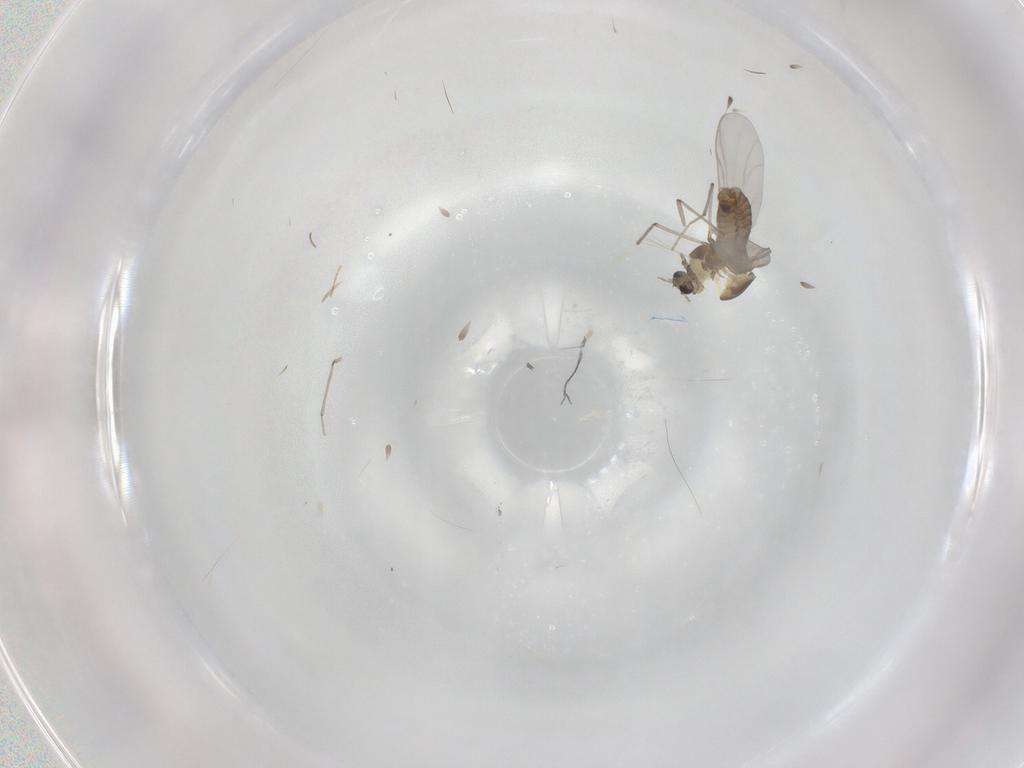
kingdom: Animalia
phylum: Arthropoda
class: Insecta
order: Diptera
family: Chironomidae
